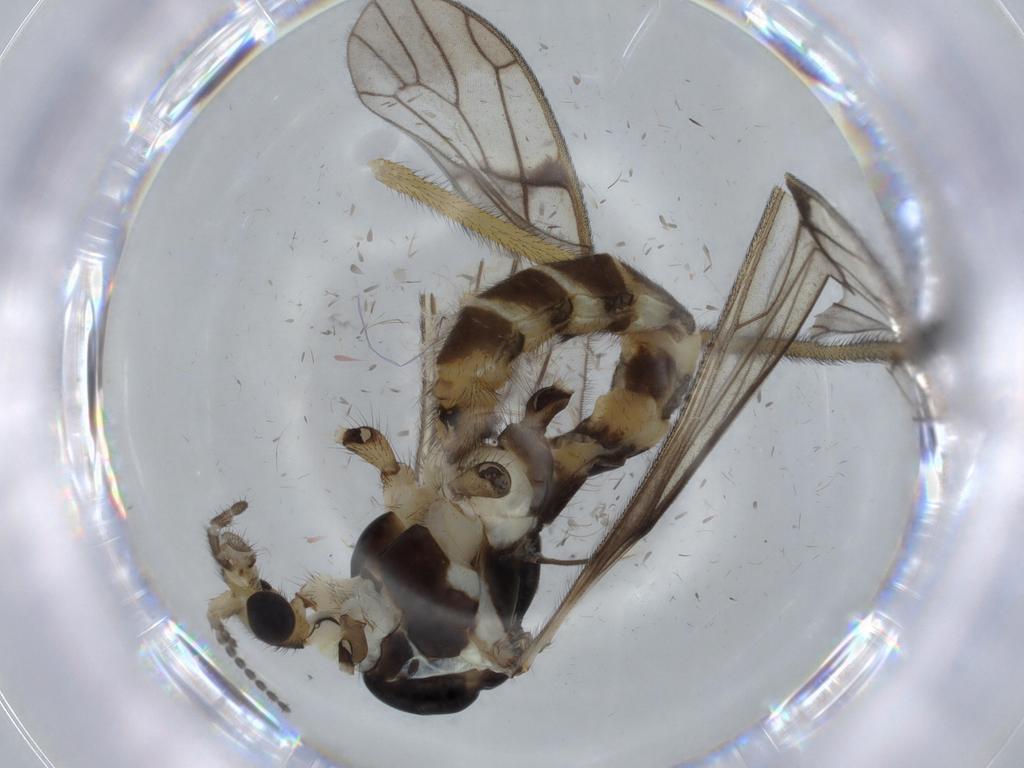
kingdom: Animalia
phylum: Arthropoda
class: Insecta
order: Diptera
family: Limoniidae
